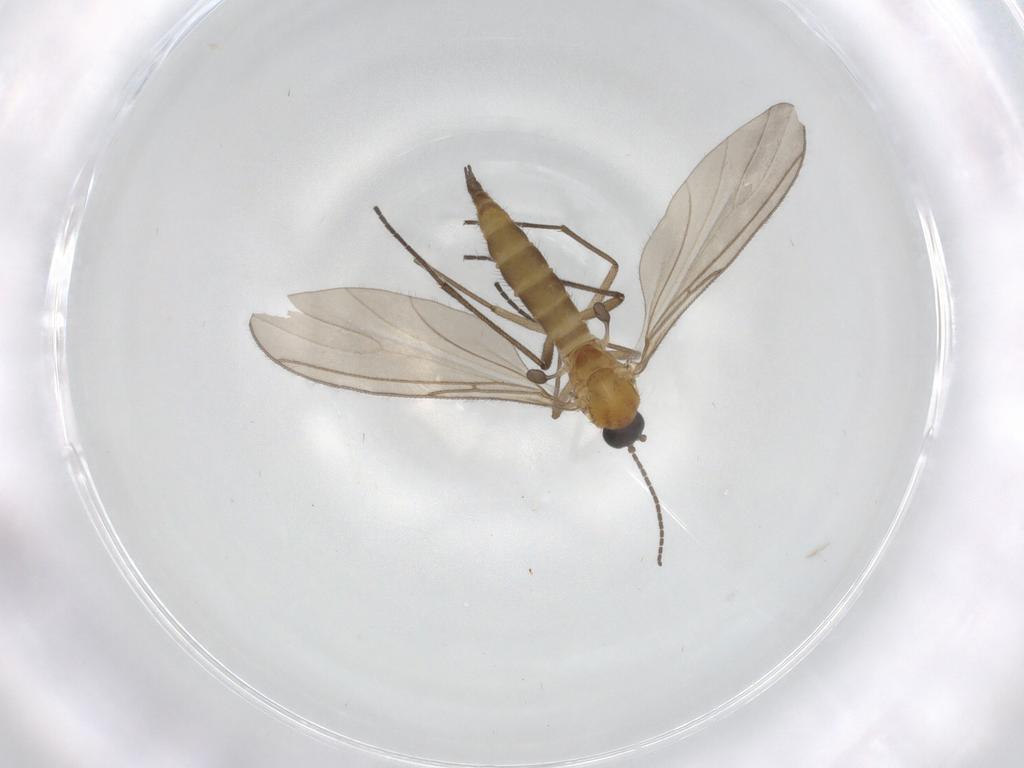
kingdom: Animalia
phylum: Arthropoda
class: Insecta
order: Diptera
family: Sciaridae
